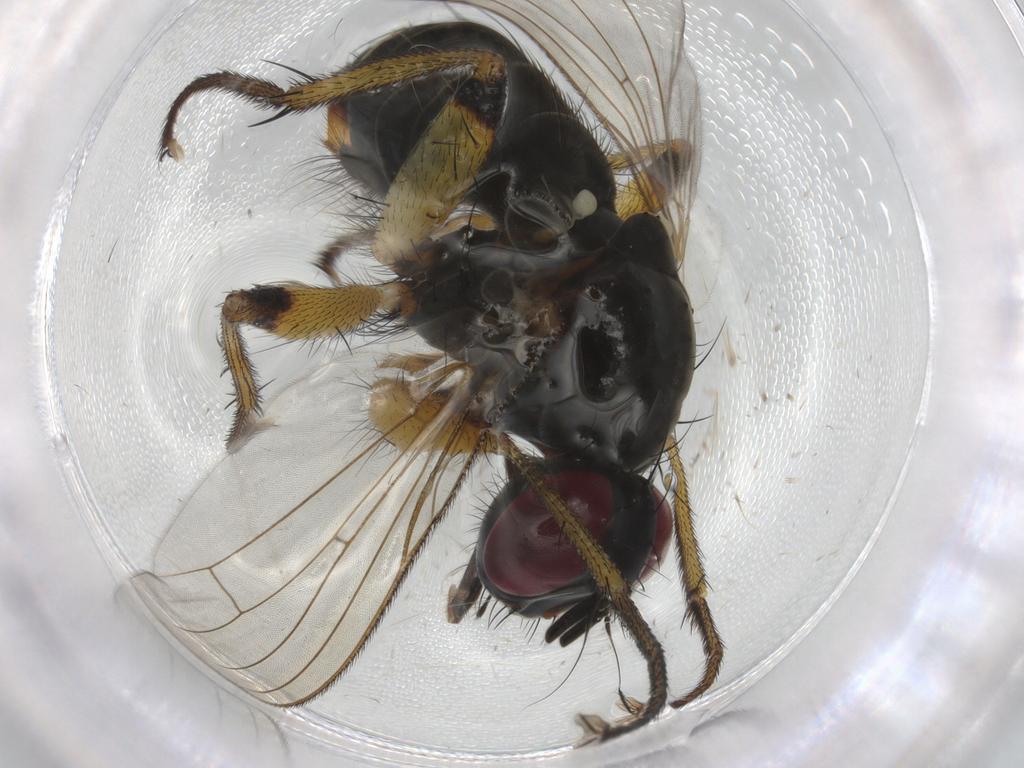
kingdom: Animalia
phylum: Arthropoda
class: Insecta
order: Diptera
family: Muscidae
